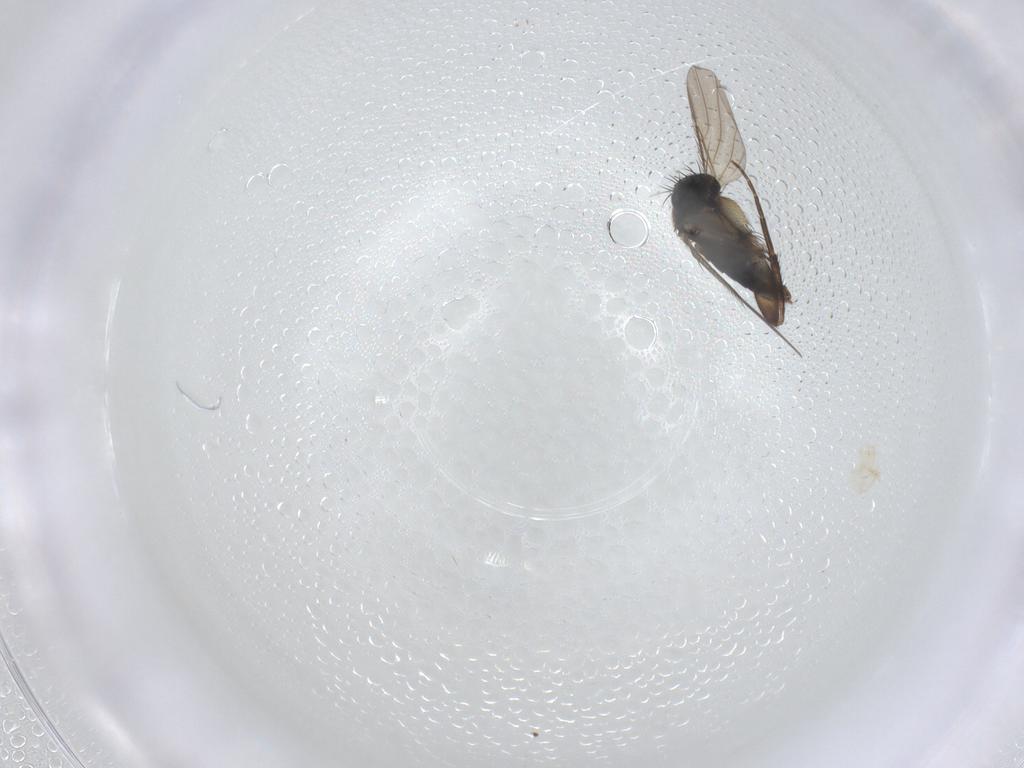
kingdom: Animalia
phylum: Arthropoda
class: Insecta
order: Diptera
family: Phoridae
